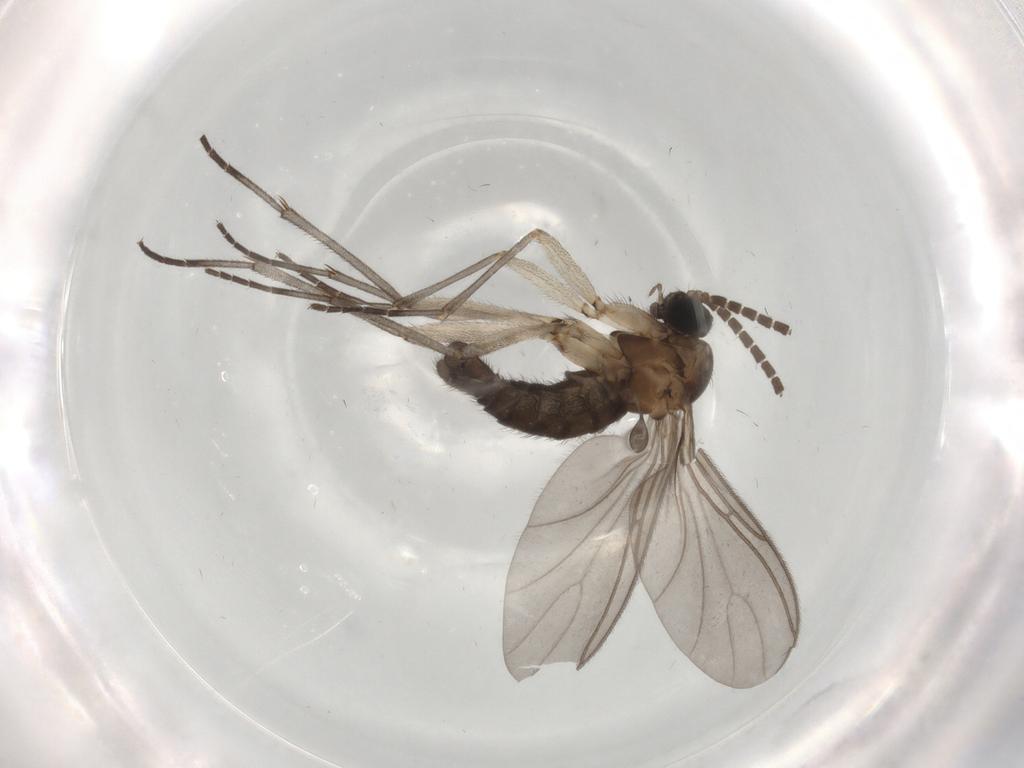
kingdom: Animalia
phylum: Arthropoda
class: Insecta
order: Diptera
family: Sciaridae
